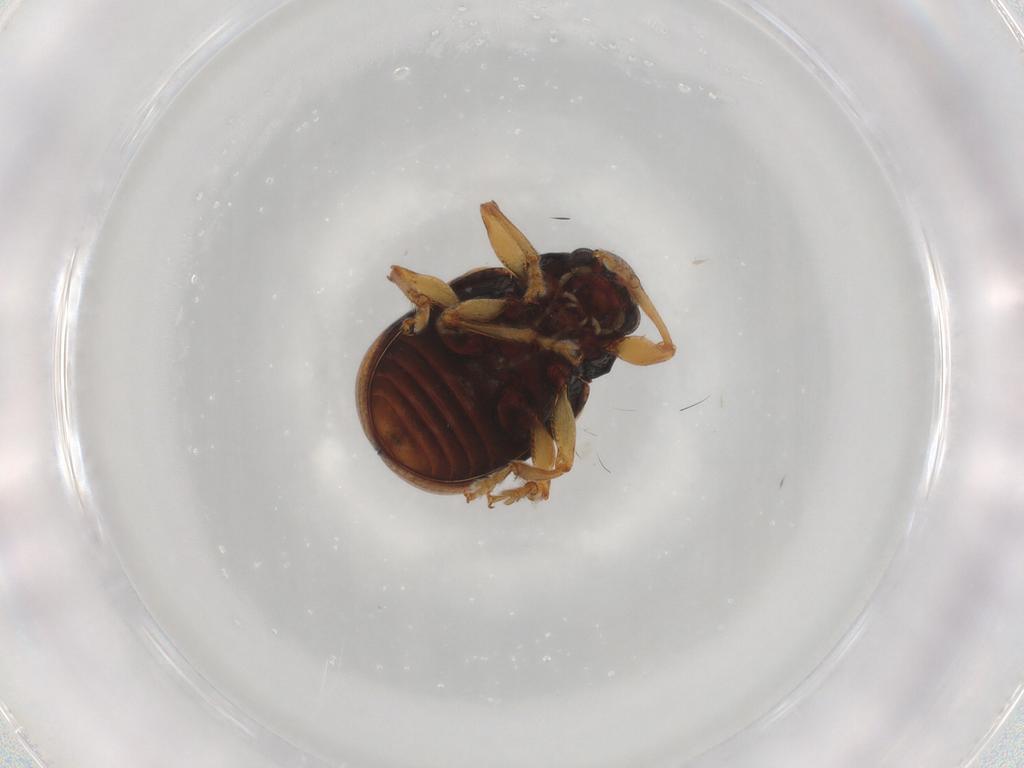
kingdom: Animalia
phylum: Arthropoda
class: Insecta
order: Coleoptera
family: Chrysomelidae
